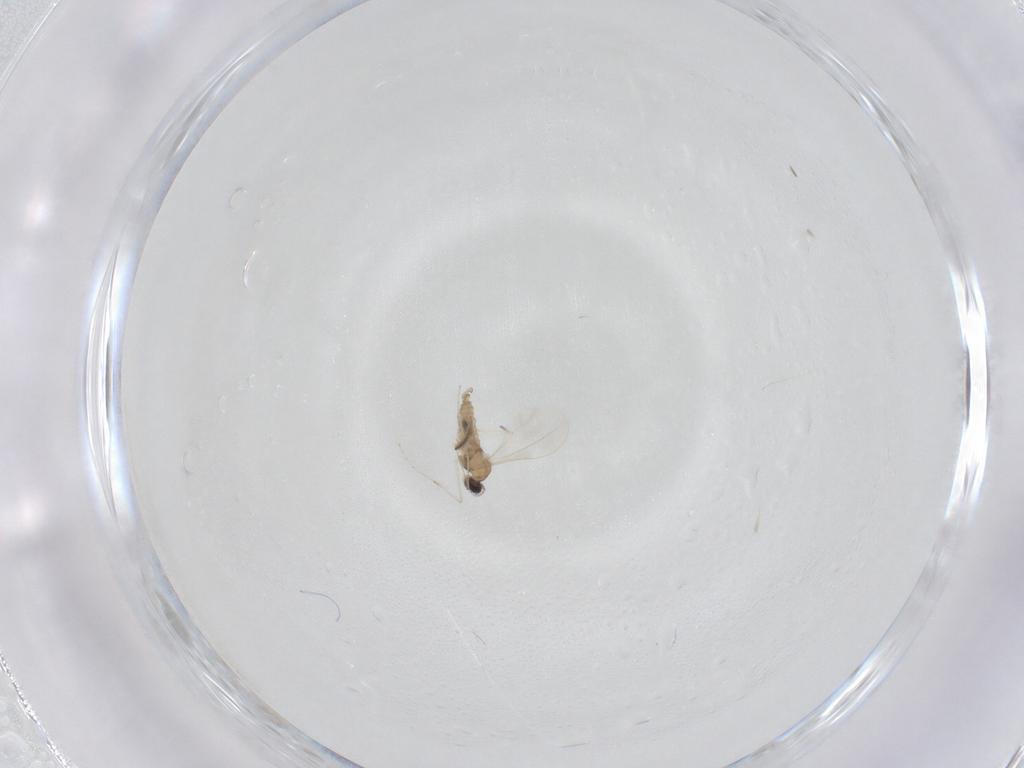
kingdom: Animalia
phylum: Arthropoda
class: Insecta
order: Diptera
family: Chironomidae
